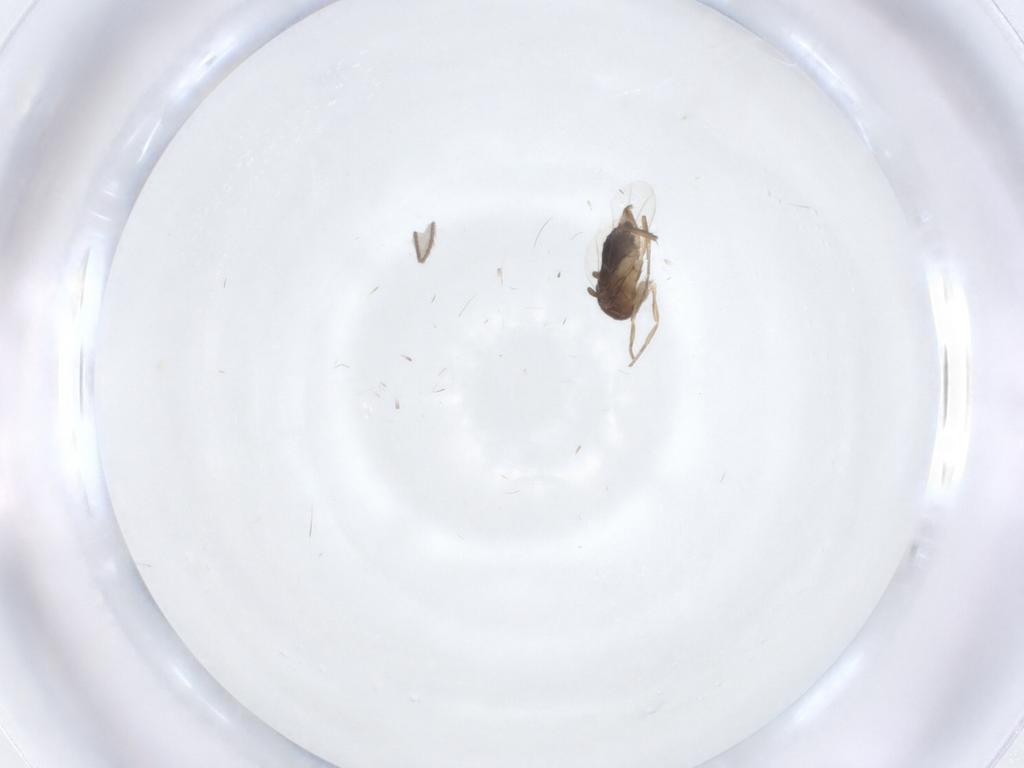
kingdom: Animalia
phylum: Arthropoda
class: Insecta
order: Diptera
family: Phoridae
